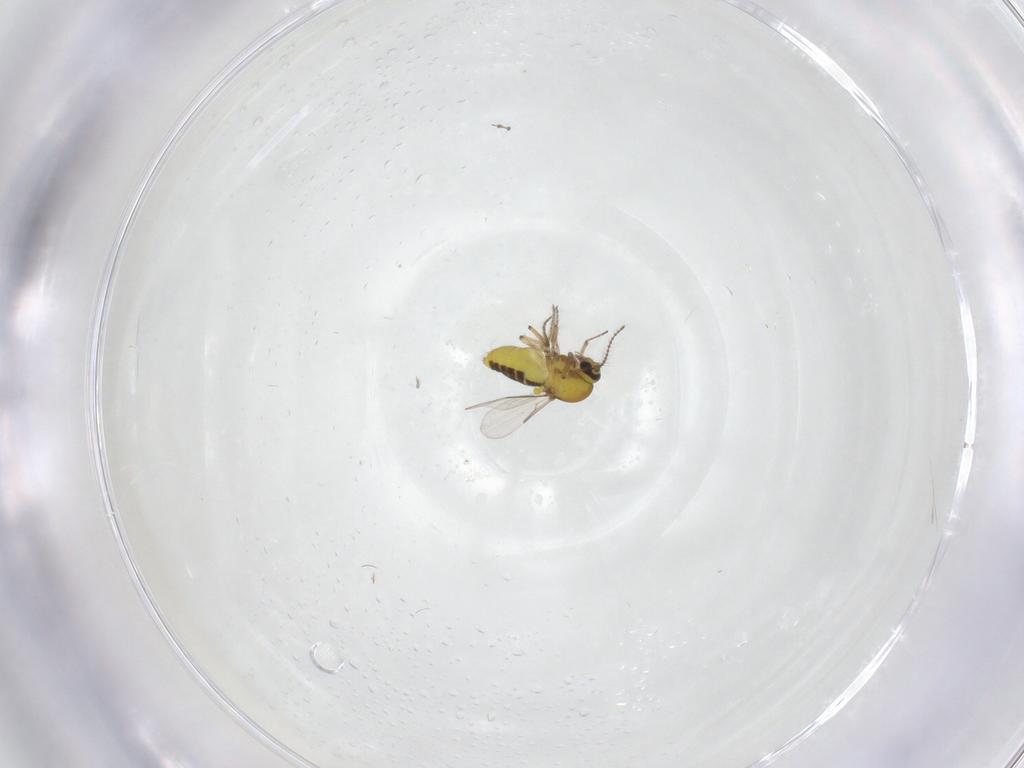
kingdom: Animalia
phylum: Arthropoda
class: Insecta
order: Diptera
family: Ceratopogonidae
